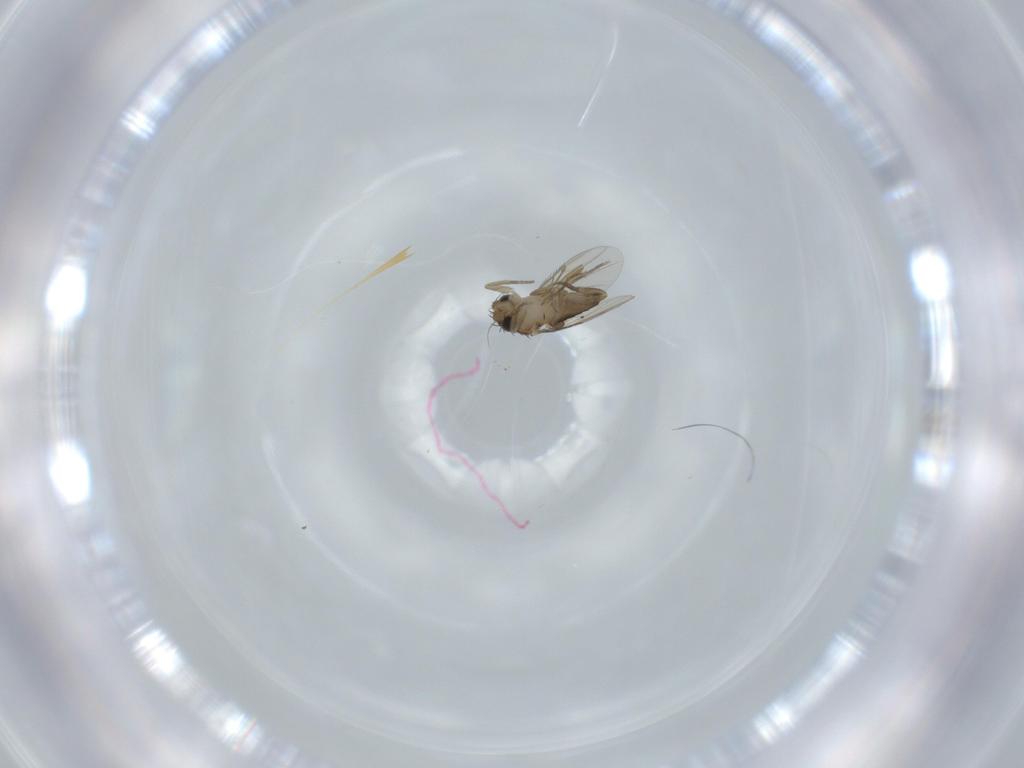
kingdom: Animalia
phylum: Arthropoda
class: Insecta
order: Diptera
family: Phoridae
